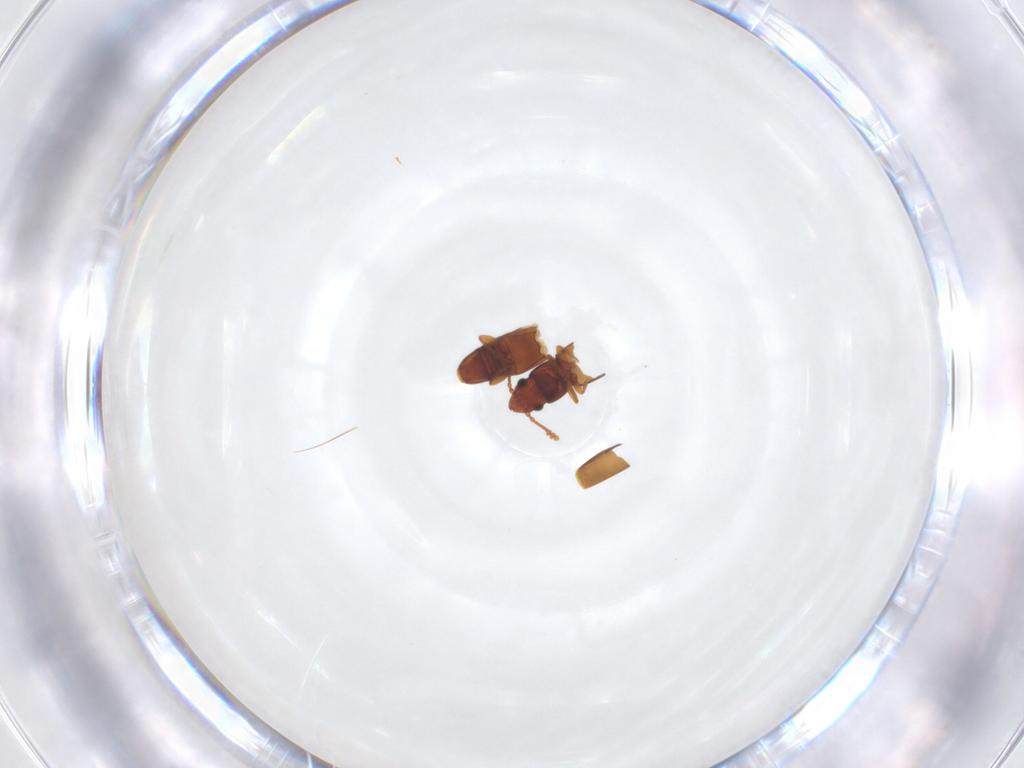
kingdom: Animalia
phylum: Arthropoda
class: Insecta
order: Coleoptera
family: Smicripidae
